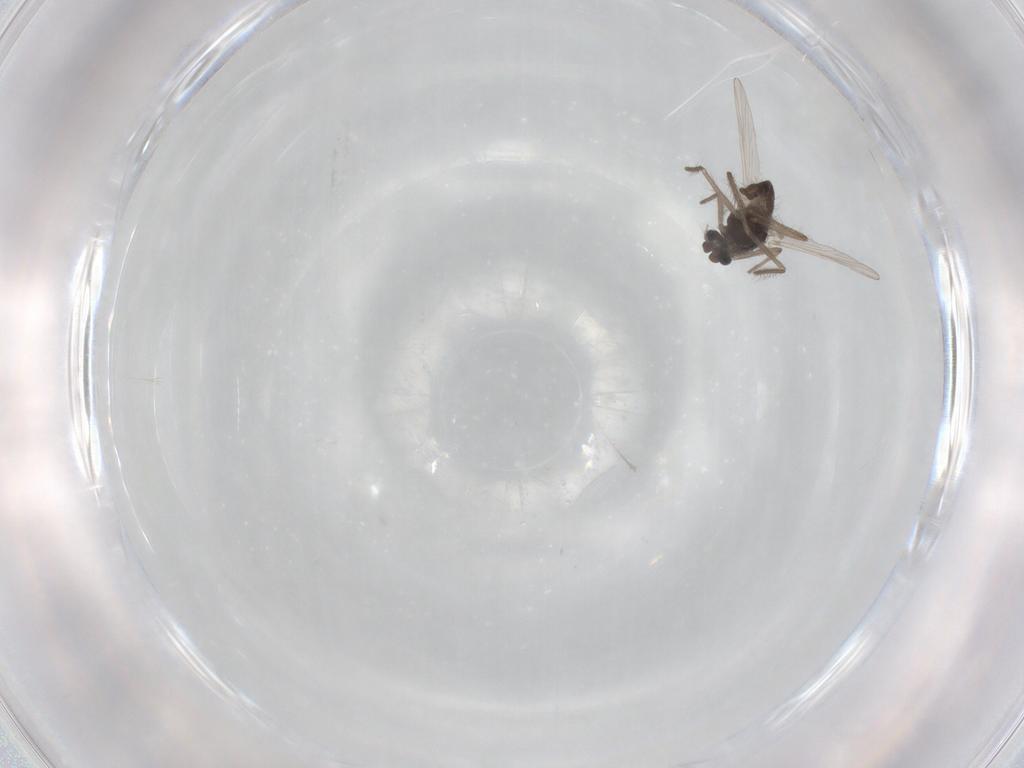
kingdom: Animalia
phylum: Arthropoda
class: Insecta
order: Diptera
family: Chironomidae
